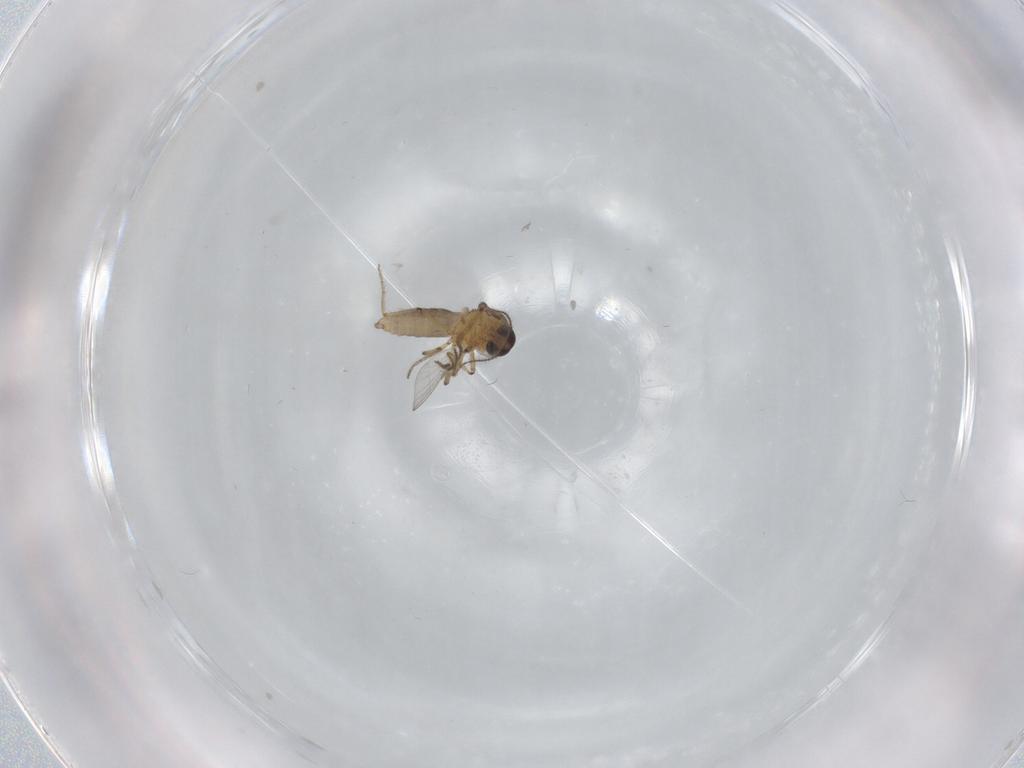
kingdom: Animalia
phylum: Arthropoda
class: Insecta
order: Diptera
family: Ceratopogonidae
